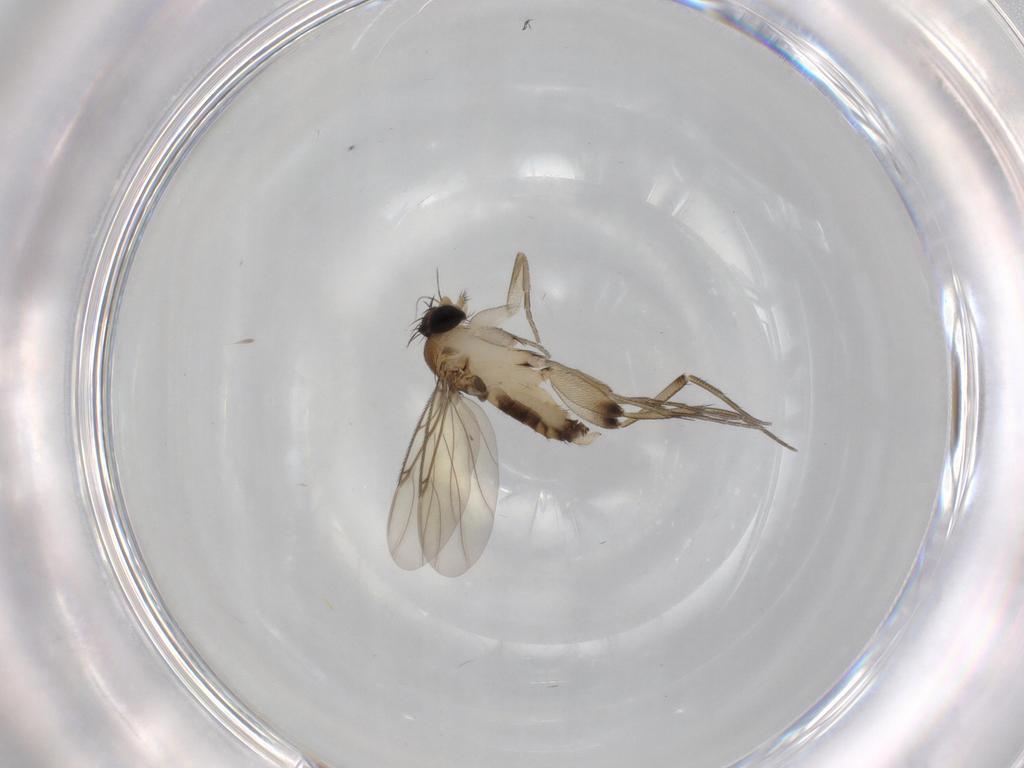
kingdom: Animalia
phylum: Arthropoda
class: Insecta
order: Diptera
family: Phoridae
